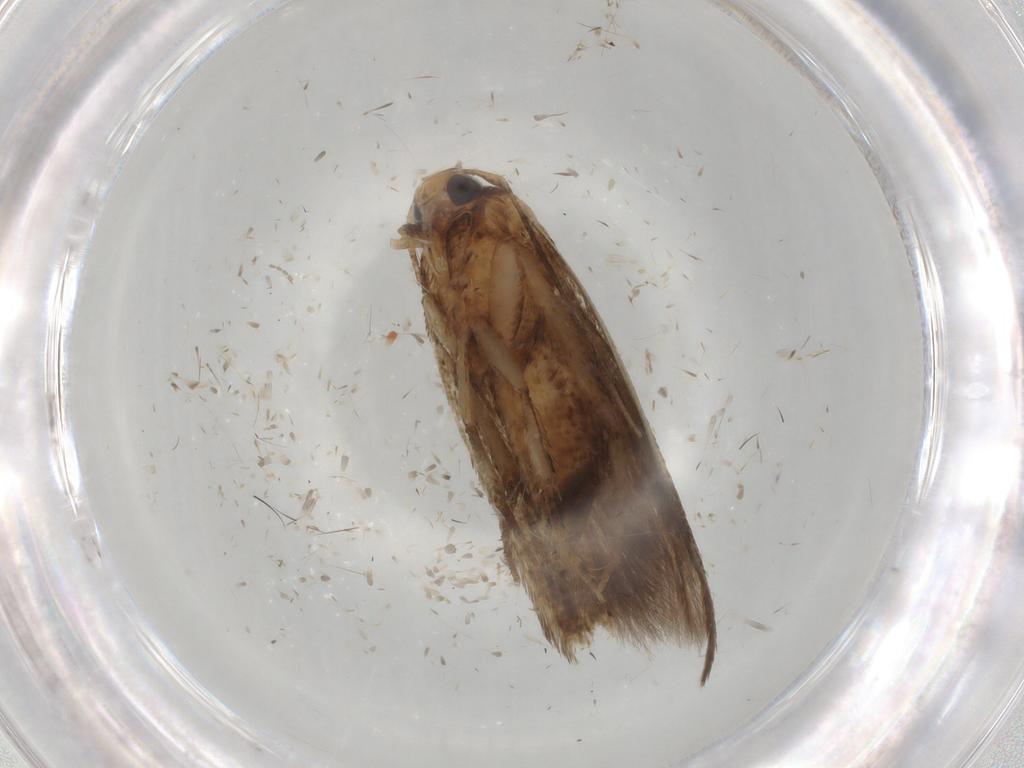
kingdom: Animalia
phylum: Arthropoda
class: Insecta
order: Lepidoptera
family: Cosmopterigidae
